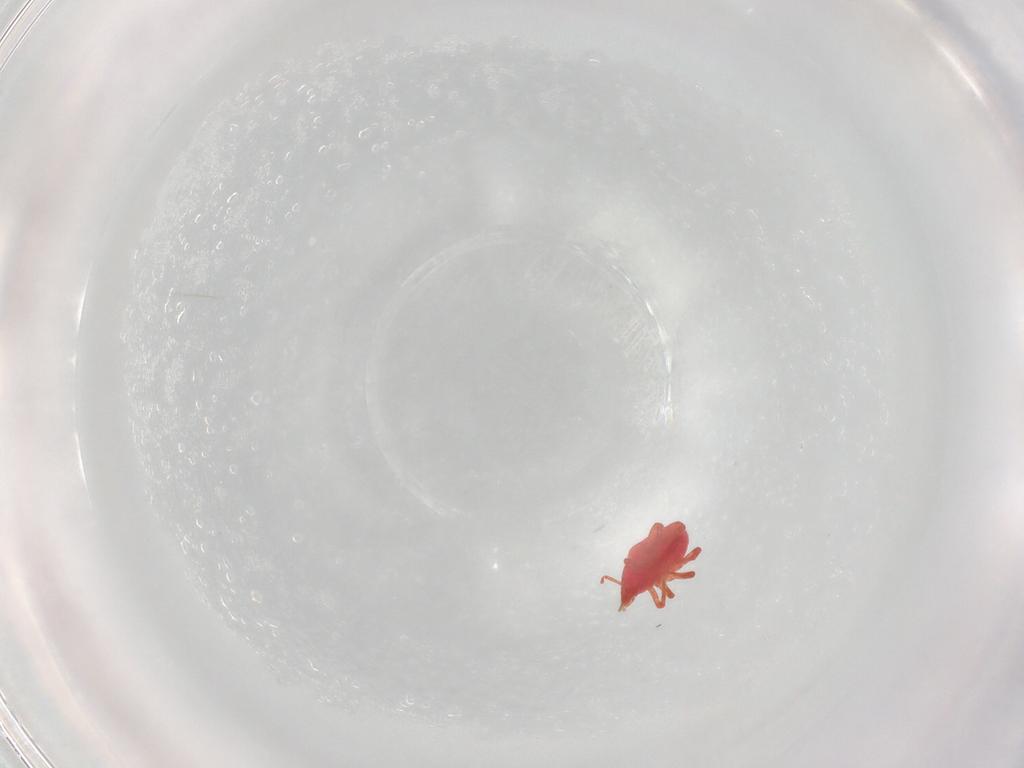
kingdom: Animalia
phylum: Arthropoda
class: Arachnida
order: Trombidiformes
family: Bdellidae
